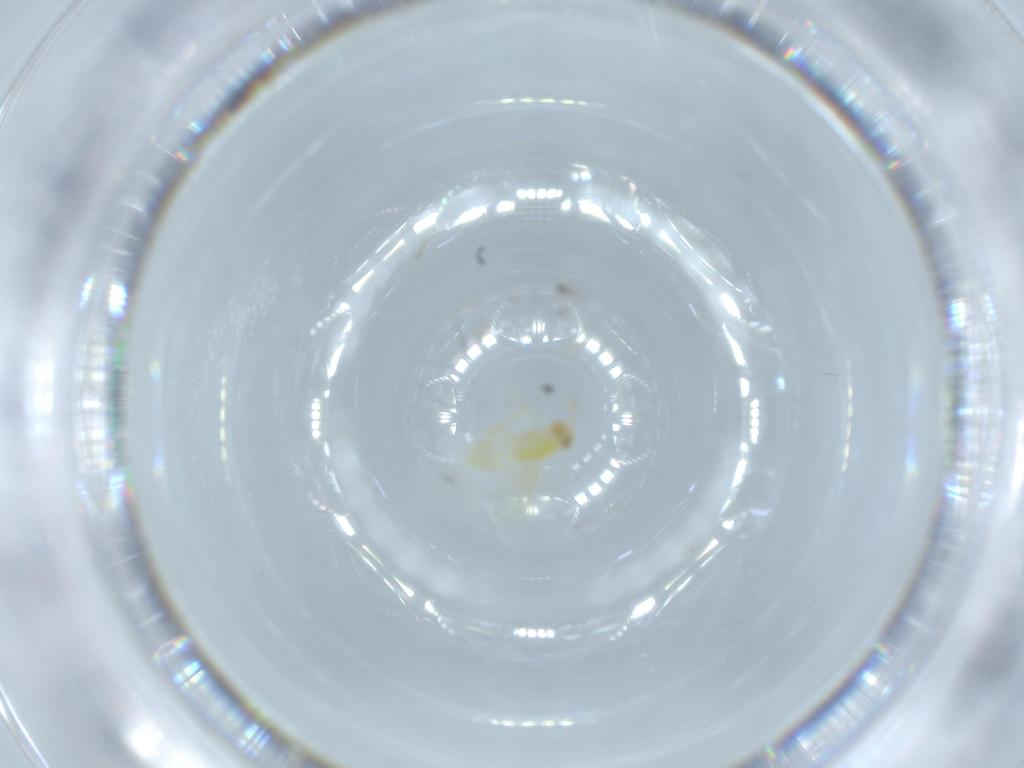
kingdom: Animalia
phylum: Arthropoda
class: Insecta
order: Hymenoptera
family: Aphelinidae
